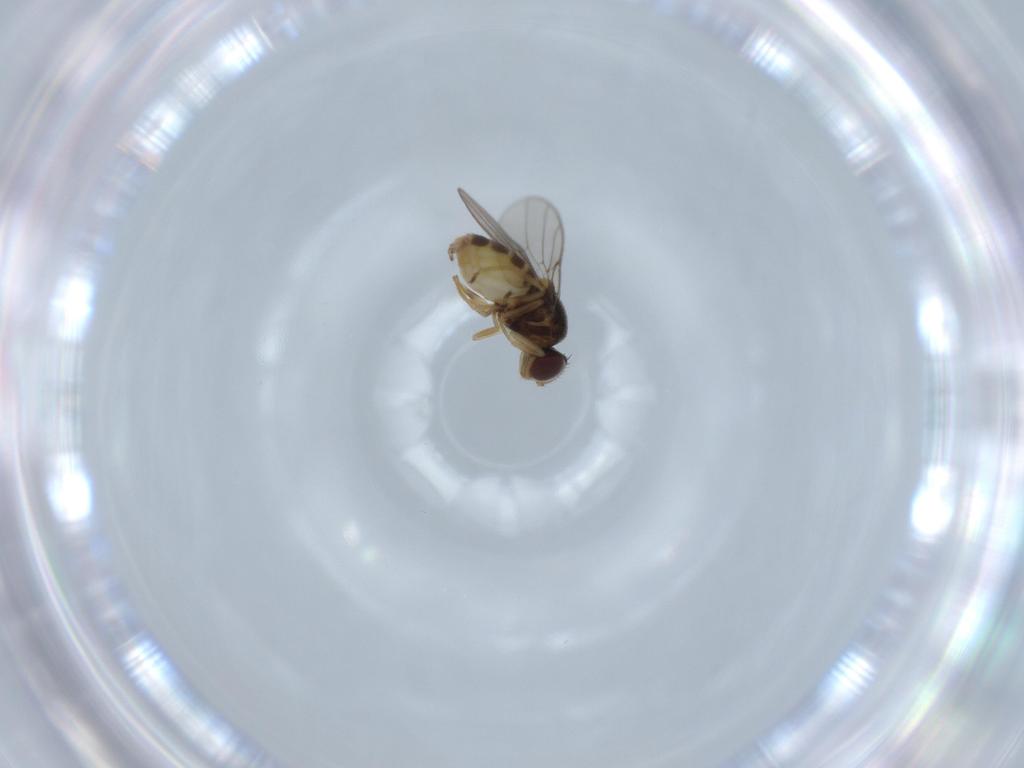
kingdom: Animalia
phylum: Arthropoda
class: Insecta
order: Diptera
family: Chloropidae
